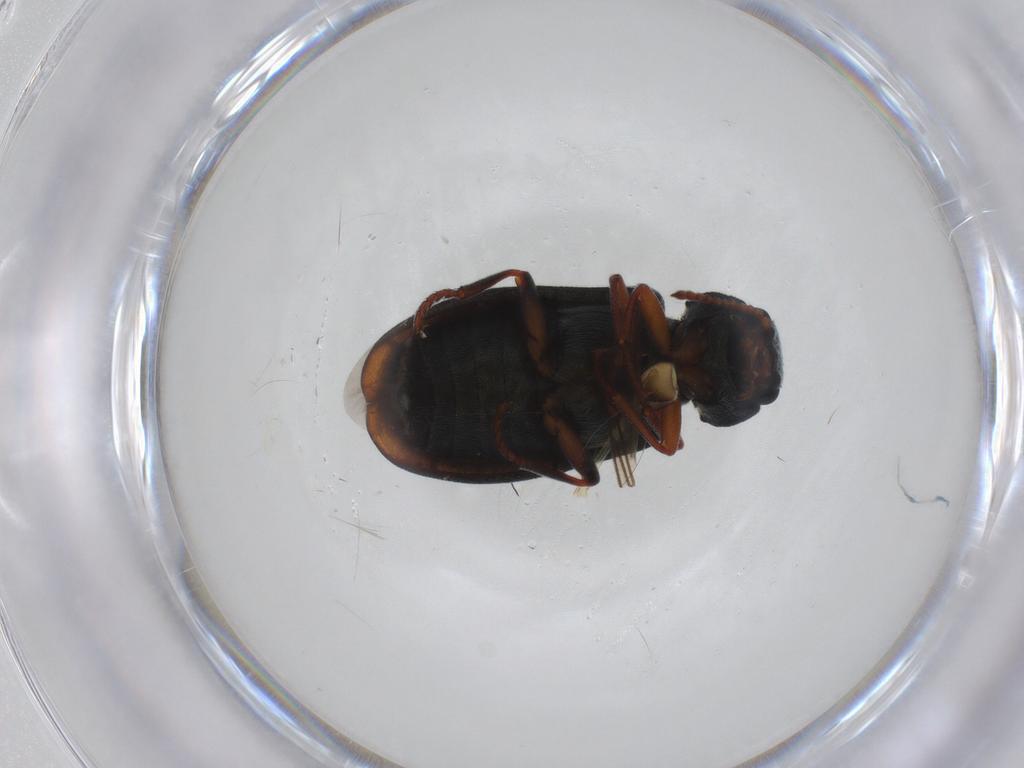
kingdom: Animalia
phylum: Arthropoda
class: Insecta
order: Coleoptera
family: Melyridae
